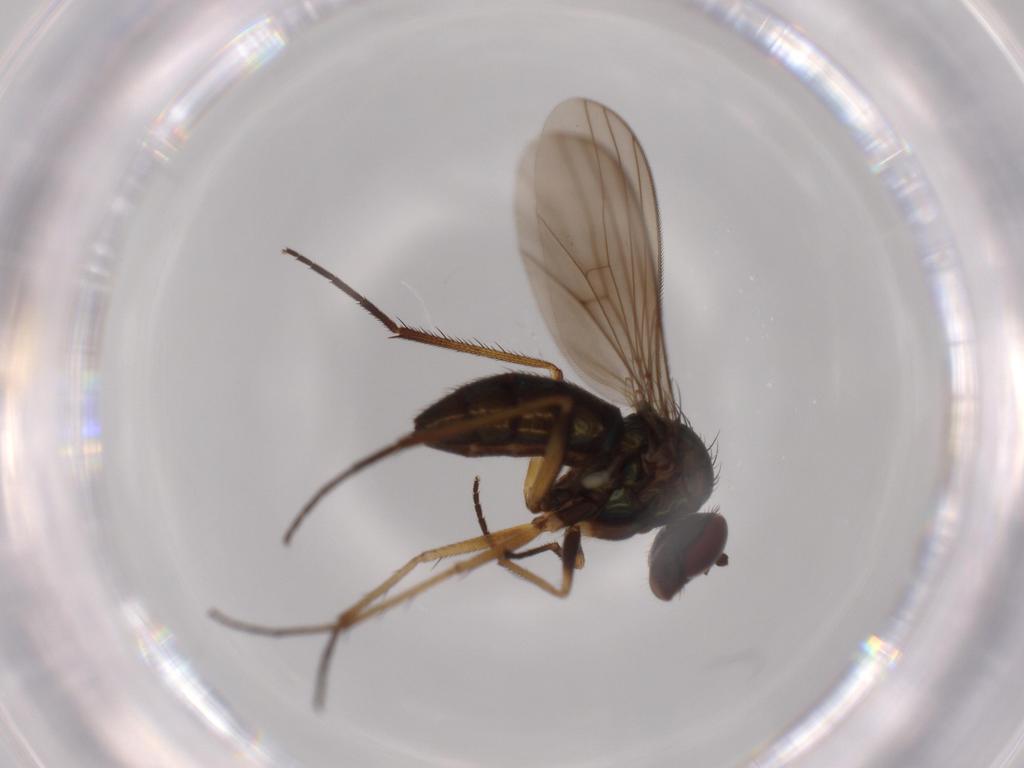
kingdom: Animalia
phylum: Arthropoda
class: Insecta
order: Diptera
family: Dolichopodidae
